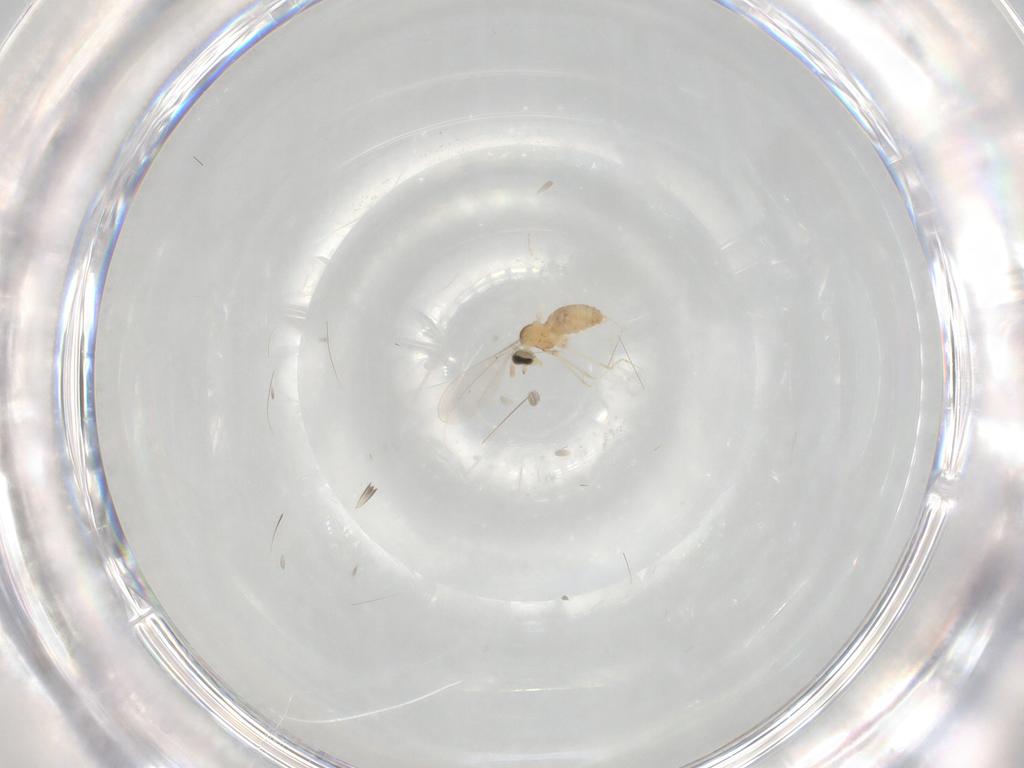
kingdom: Animalia
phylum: Arthropoda
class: Insecta
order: Diptera
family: Cecidomyiidae
